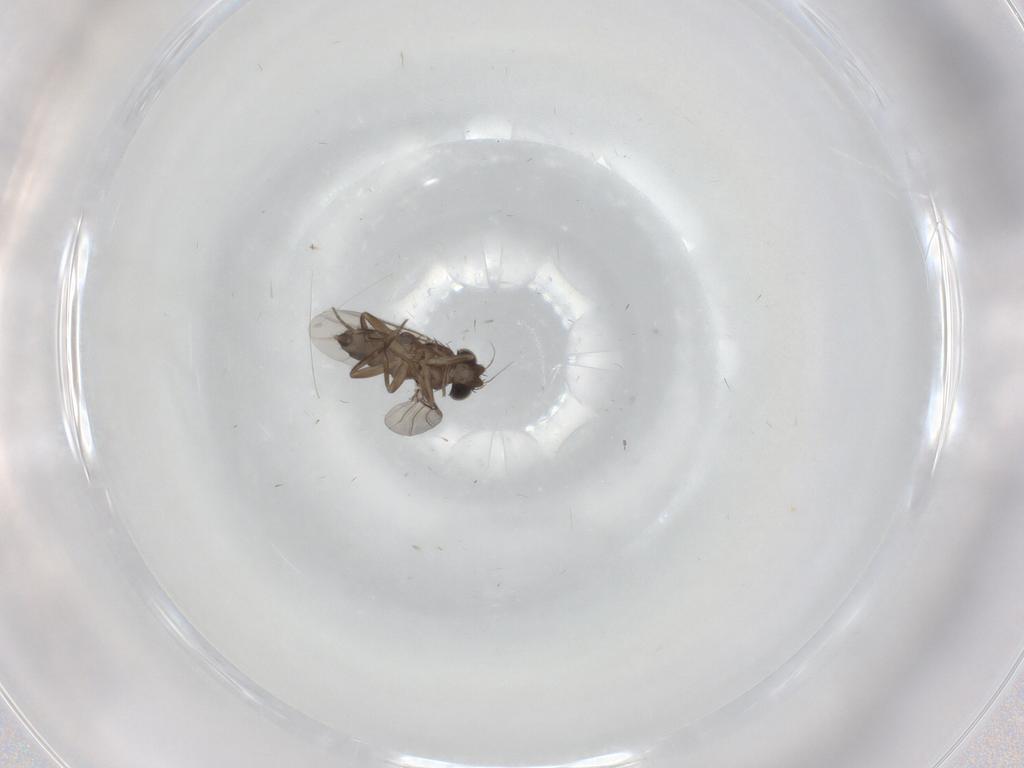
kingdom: Animalia
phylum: Arthropoda
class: Insecta
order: Diptera
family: Phoridae
